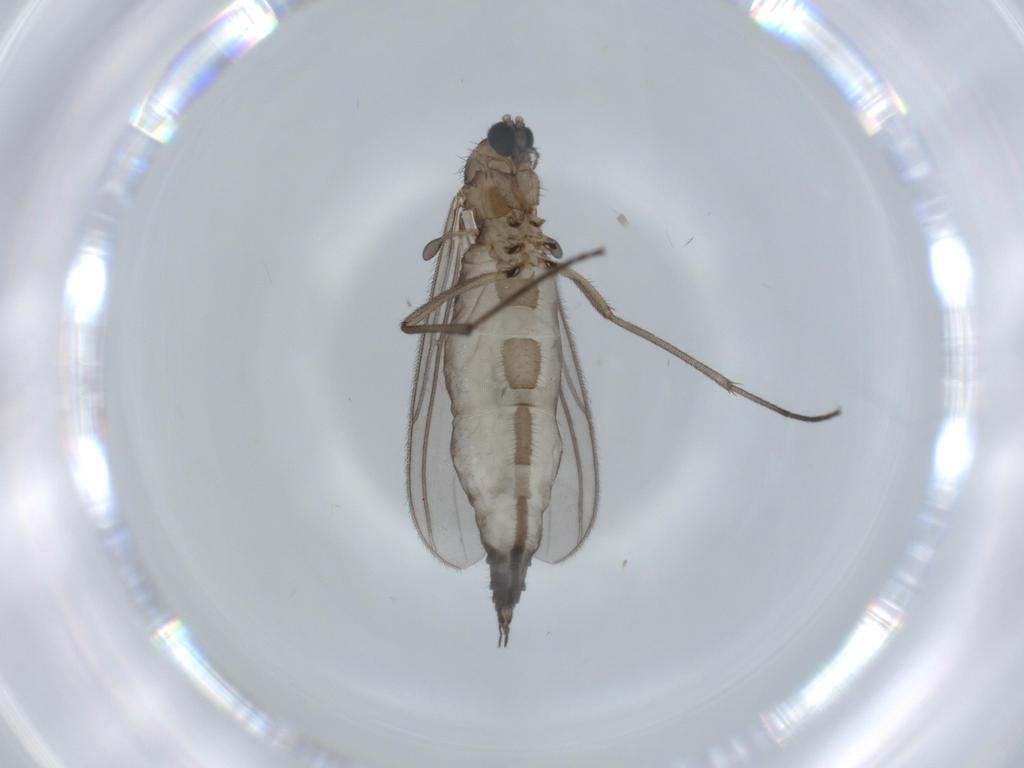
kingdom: Animalia
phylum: Arthropoda
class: Insecta
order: Diptera
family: Sciaridae
